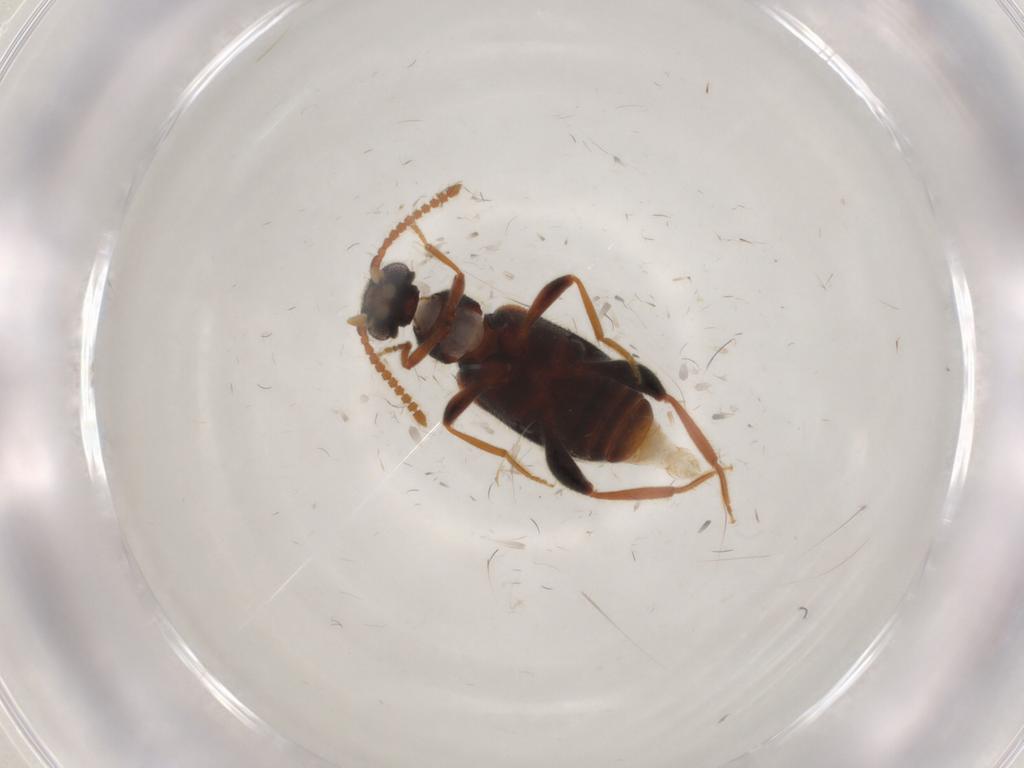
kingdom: Animalia
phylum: Arthropoda
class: Insecta
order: Coleoptera
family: Aderidae
